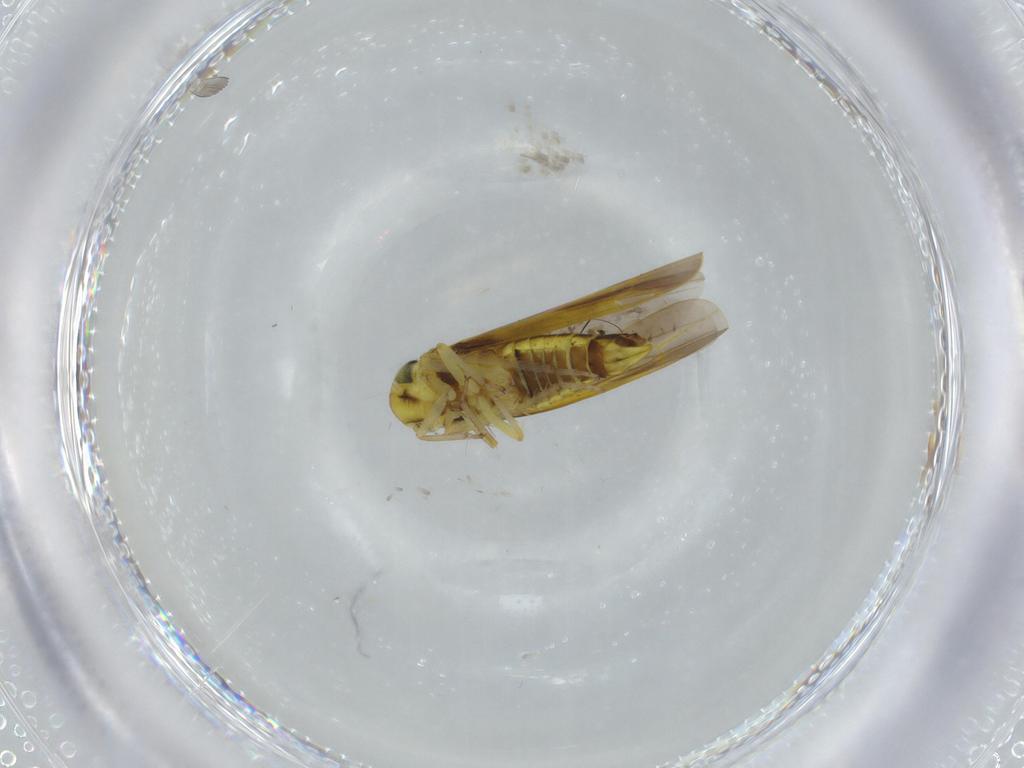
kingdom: Animalia
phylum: Arthropoda
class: Insecta
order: Hemiptera
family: Cicadellidae
